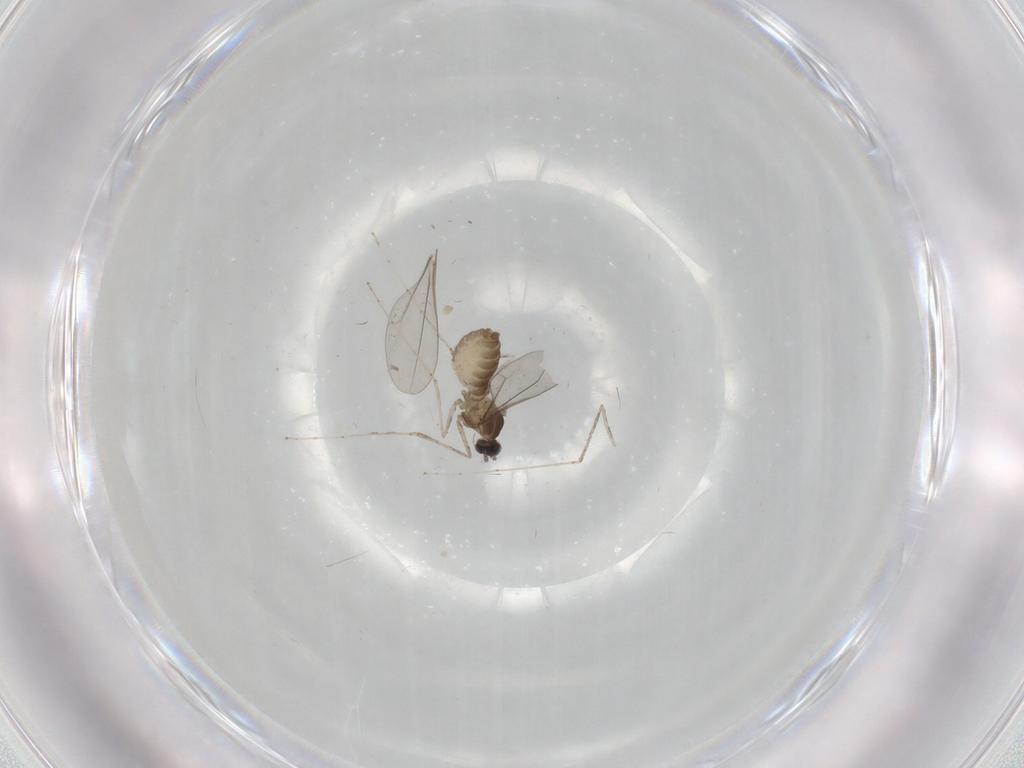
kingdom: Animalia
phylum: Arthropoda
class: Insecta
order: Diptera
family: Cecidomyiidae
